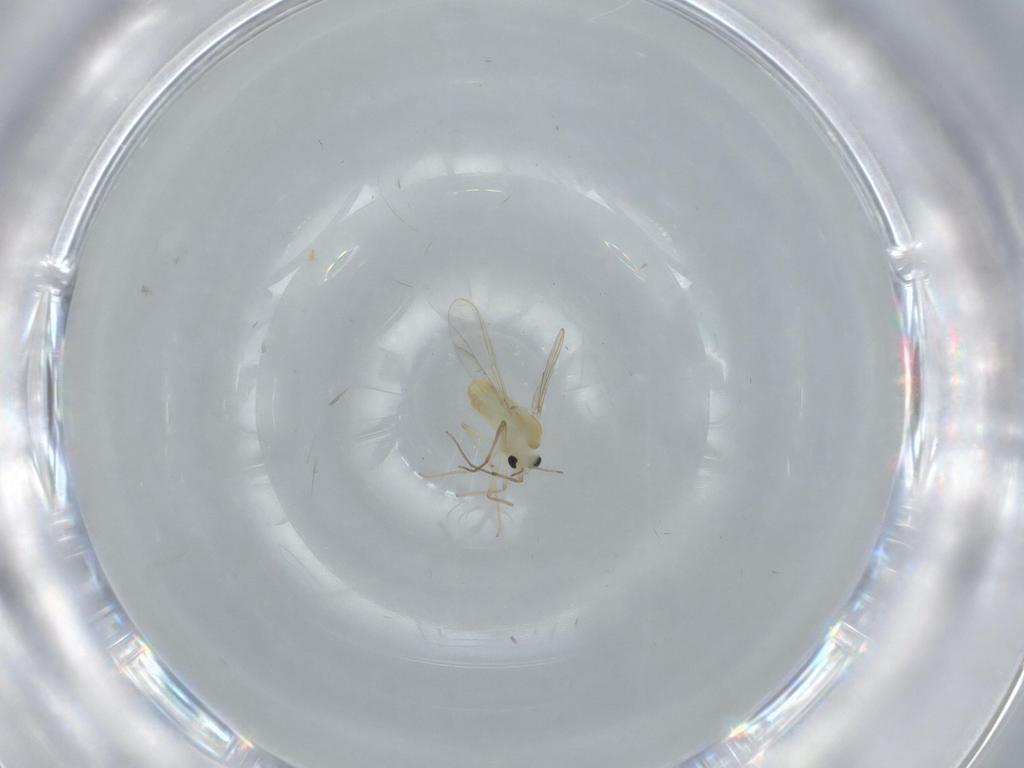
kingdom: Animalia
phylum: Arthropoda
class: Insecta
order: Diptera
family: Chironomidae
